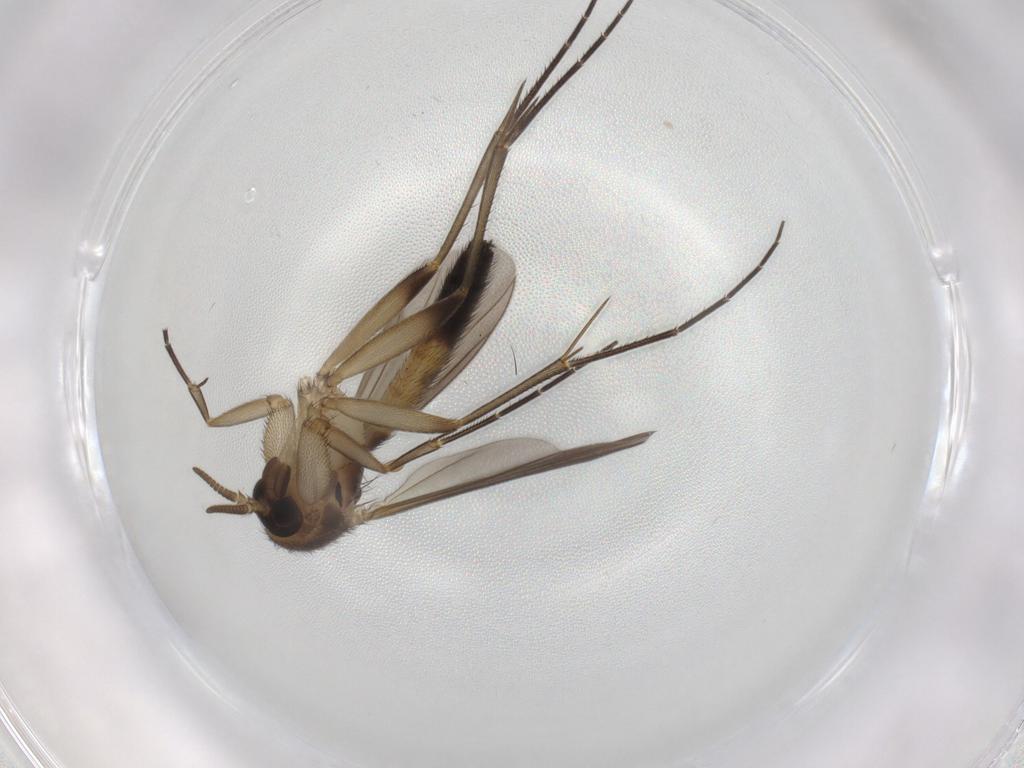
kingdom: Animalia
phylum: Arthropoda
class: Insecta
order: Diptera
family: Mycetophilidae
